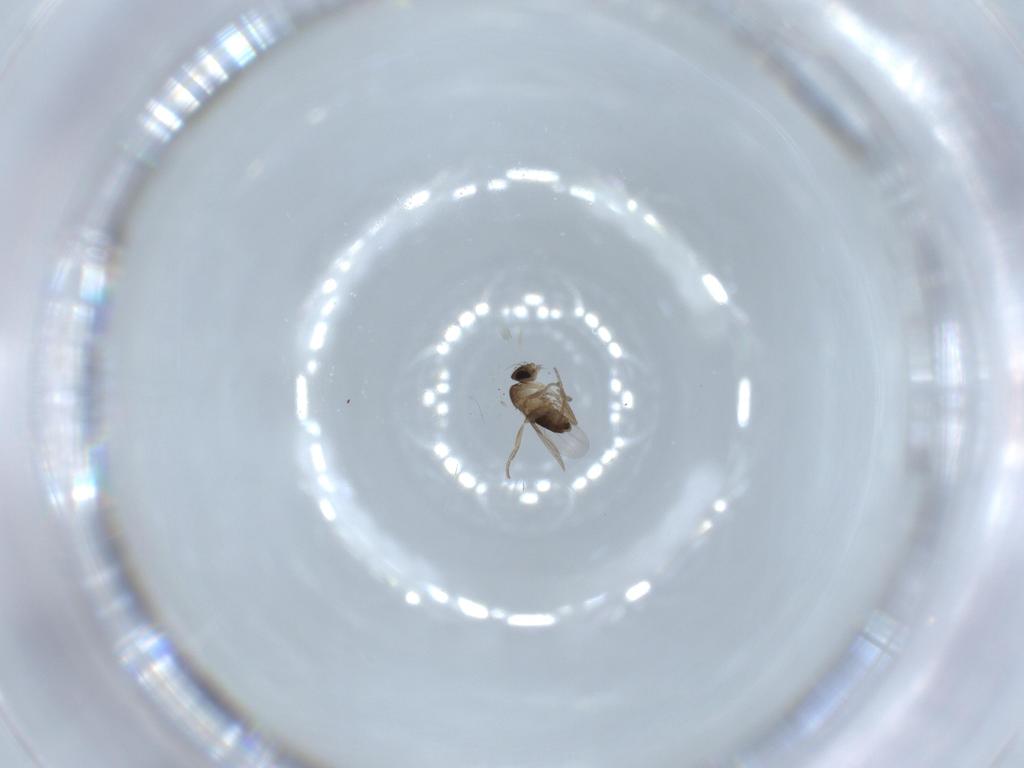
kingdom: Animalia
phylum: Arthropoda
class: Insecta
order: Diptera
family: Phoridae
